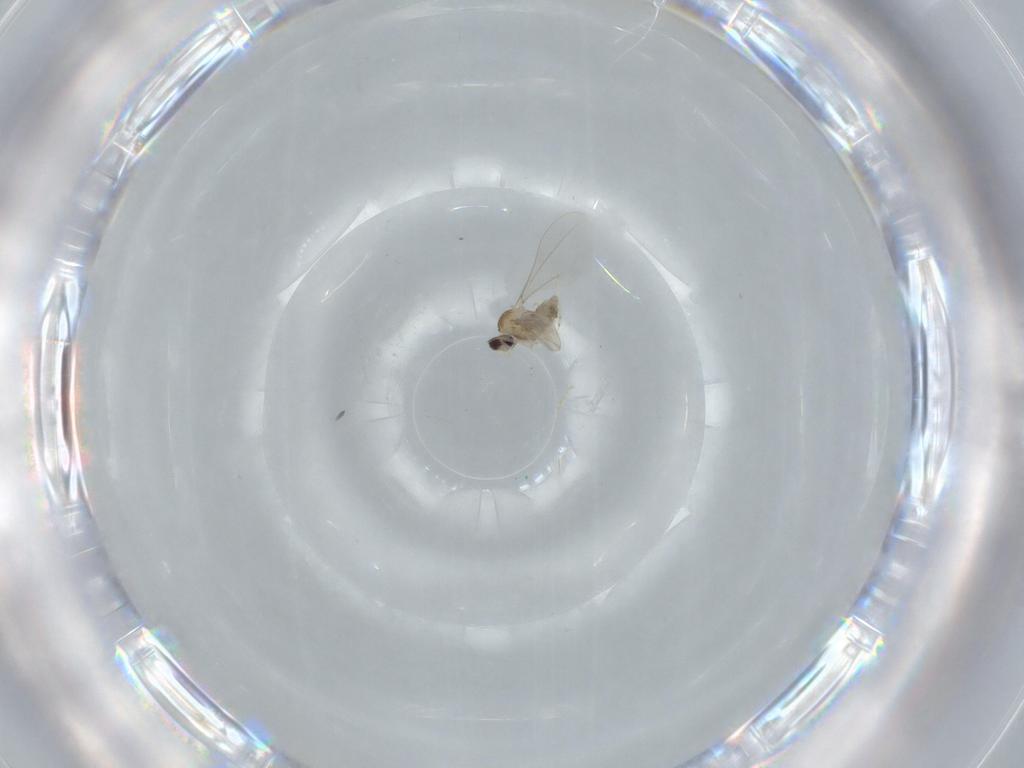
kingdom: Animalia
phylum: Arthropoda
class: Insecta
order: Diptera
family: Cecidomyiidae
